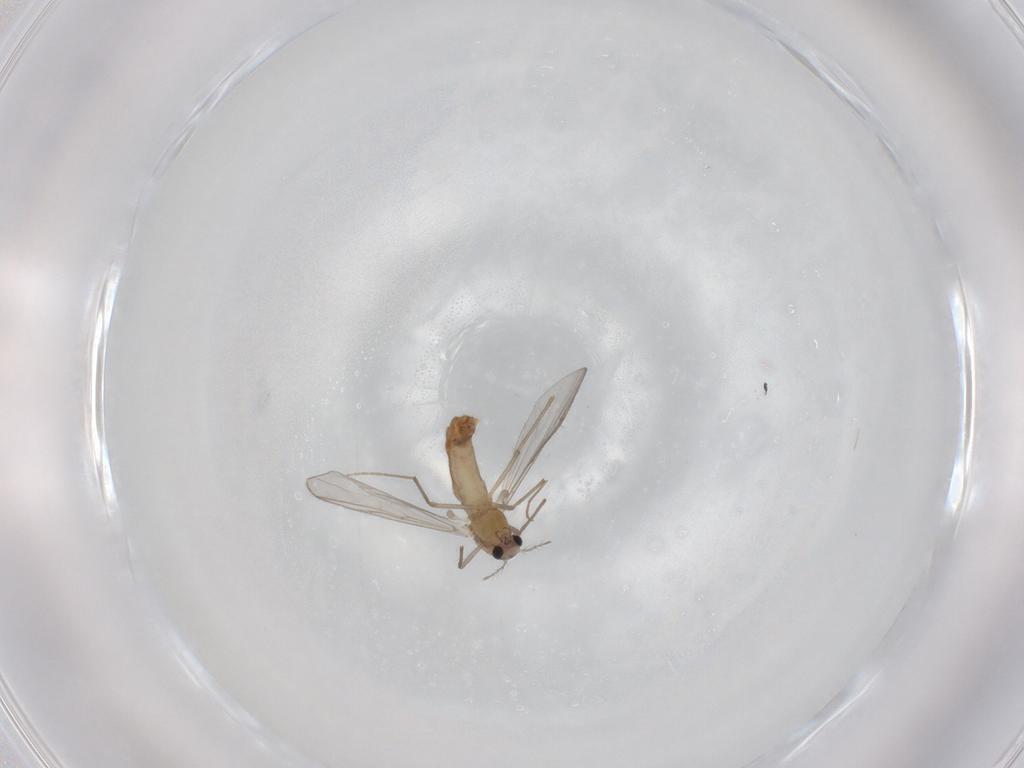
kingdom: Animalia
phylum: Arthropoda
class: Insecta
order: Diptera
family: Chironomidae
